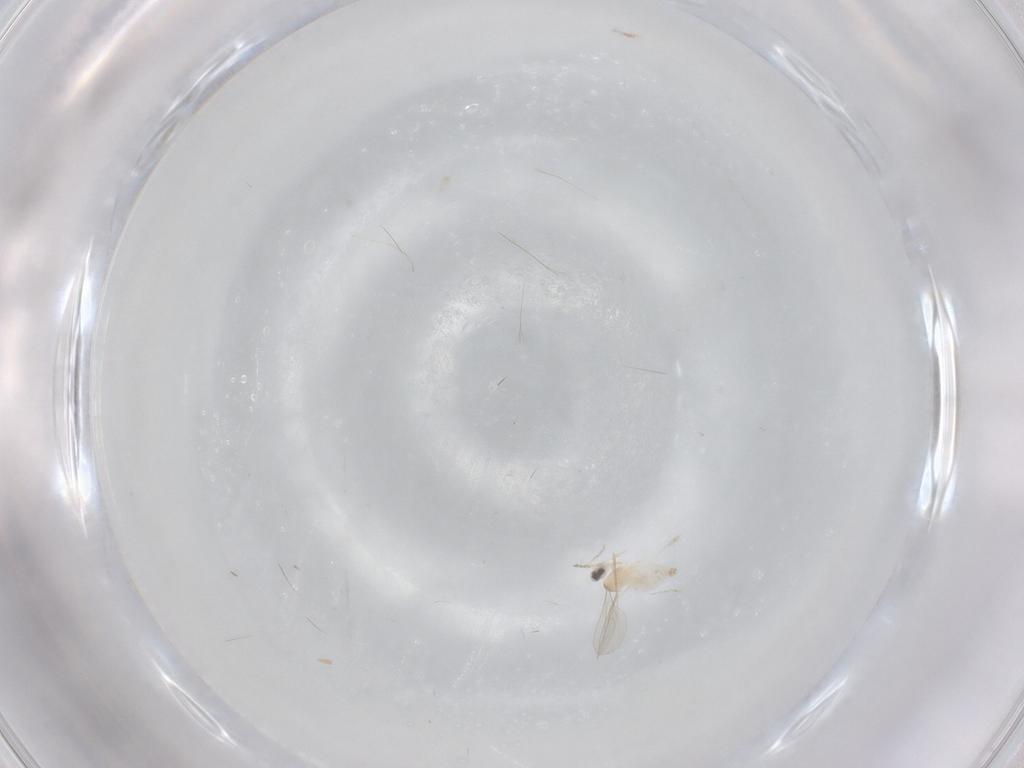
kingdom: Animalia
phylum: Arthropoda
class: Insecta
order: Diptera
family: Cecidomyiidae
